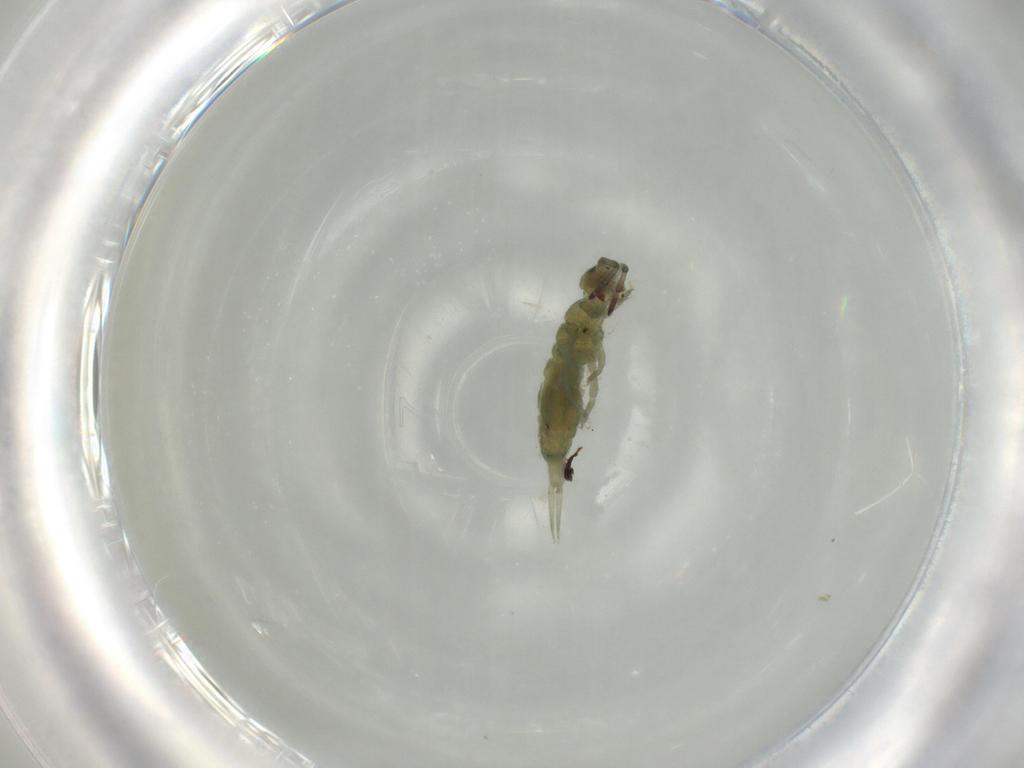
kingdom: Animalia
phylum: Arthropoda
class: Collembola
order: Entomobryomorpha
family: Isotomidae
